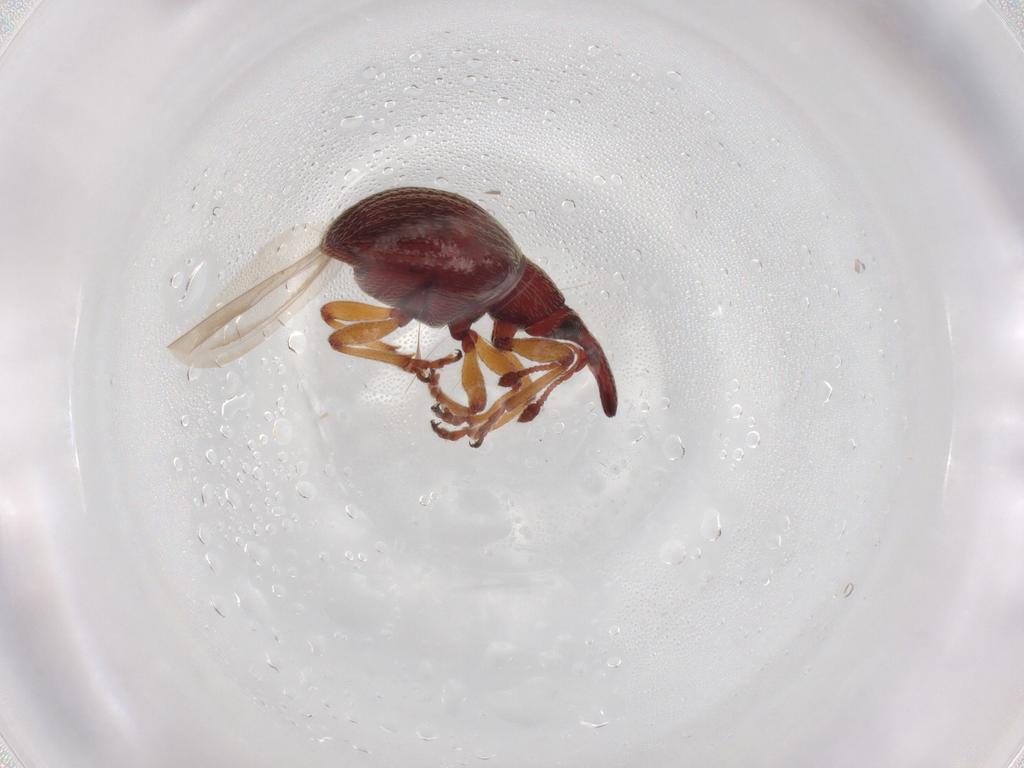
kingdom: Animalia
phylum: Arthropoda
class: Insecta
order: Coleoptera
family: Brentidae
